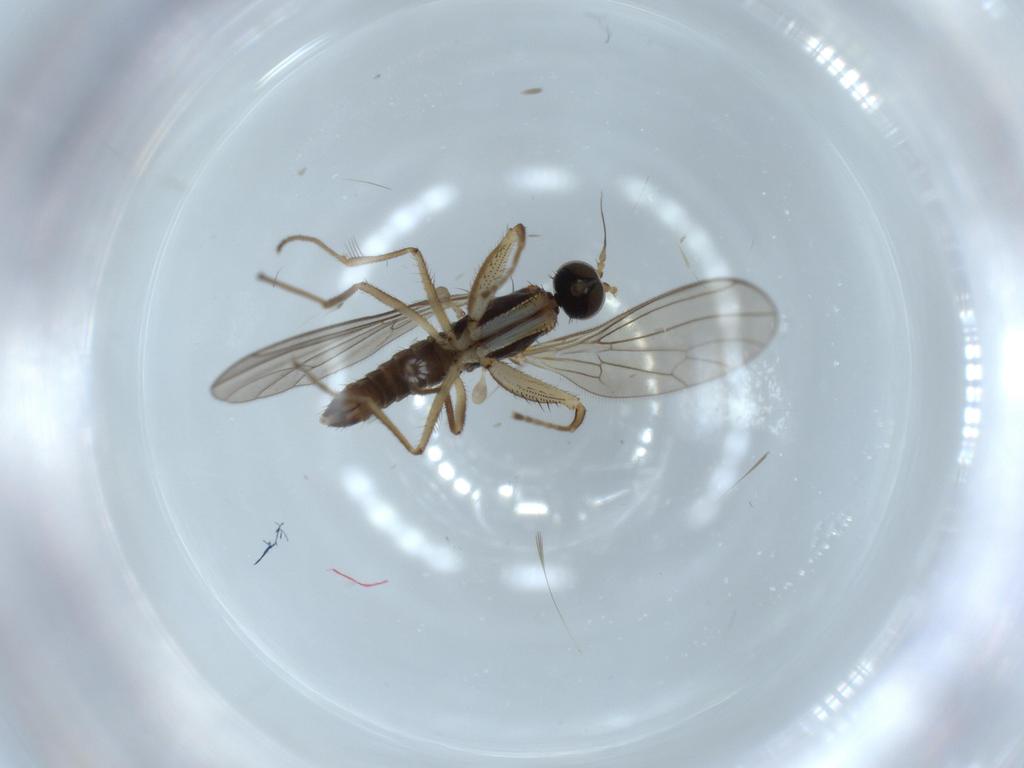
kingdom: Animalia
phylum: Arthropoda
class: Insecta
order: Diptera
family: Empididae
